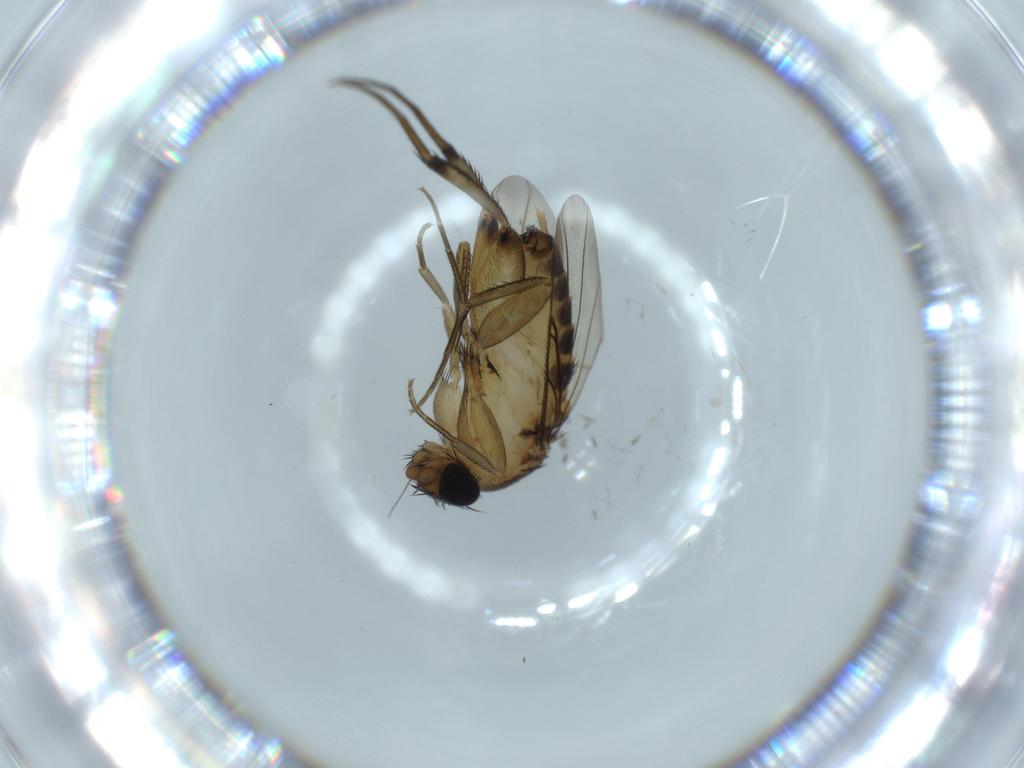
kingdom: Animalia
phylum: Arthropoda
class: Insecta
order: Diptera
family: Phoridae
